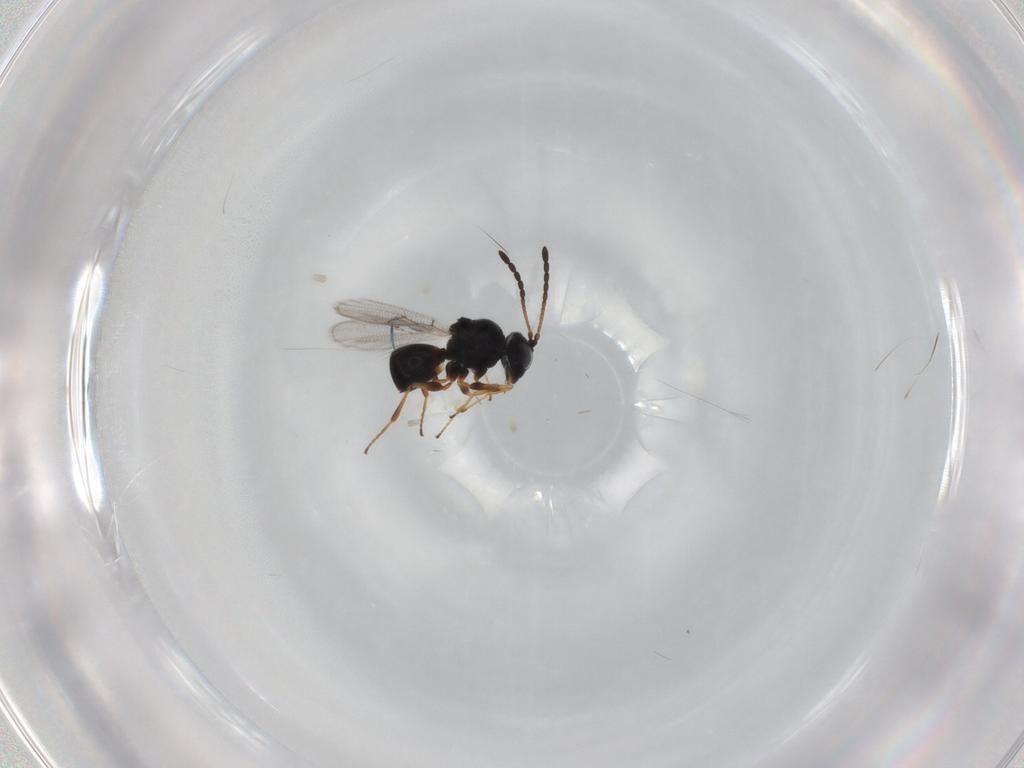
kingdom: Animalia
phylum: Arthropoda
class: Insecta
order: Hymenoptera
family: Figitidae
